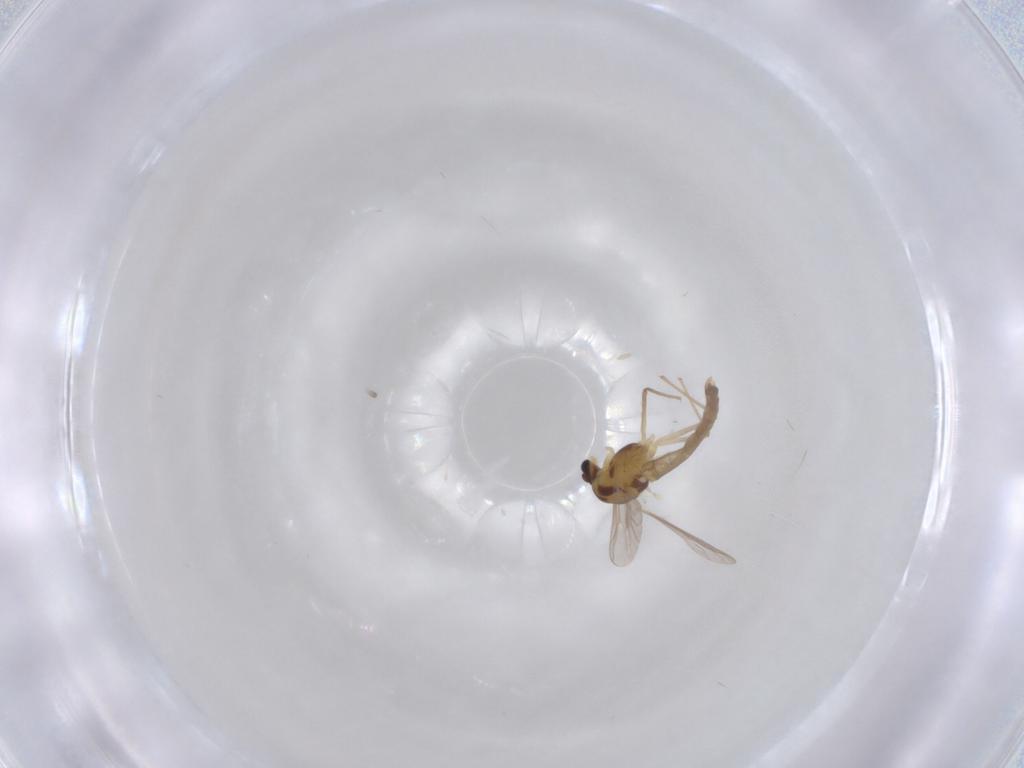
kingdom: Animalia
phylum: Arthropoda
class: Insecta
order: Diptera
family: Chironomidae
